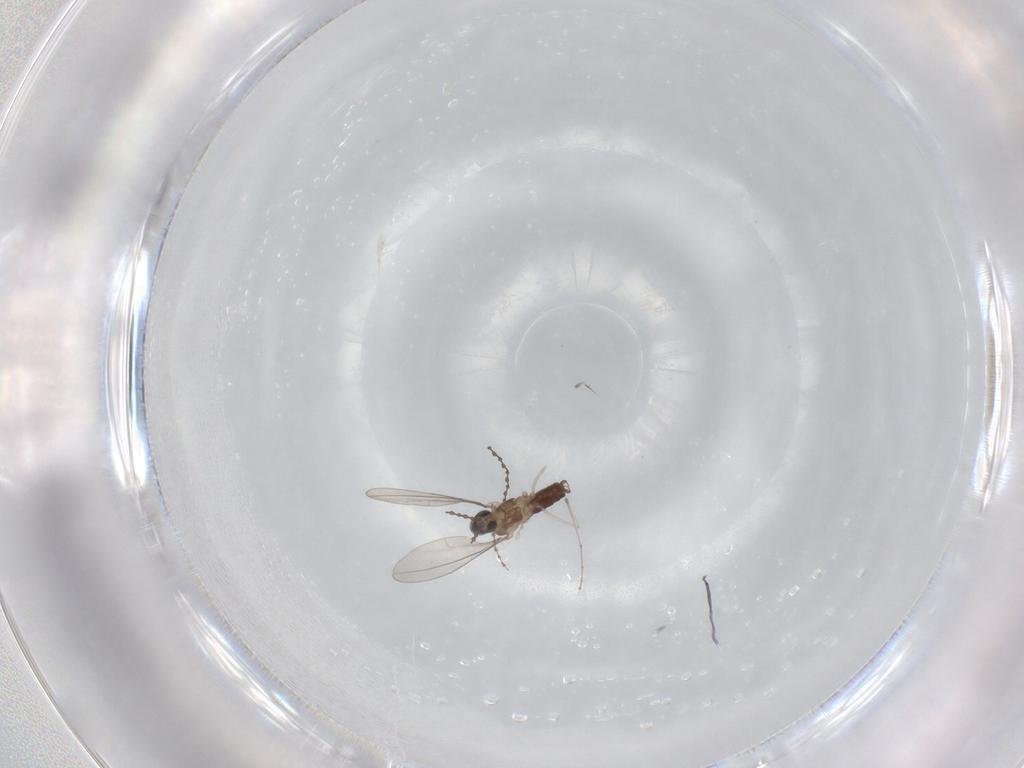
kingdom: Animalia
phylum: Arthropoda
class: Insecta
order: Diptera
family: Cecidomyiidae
